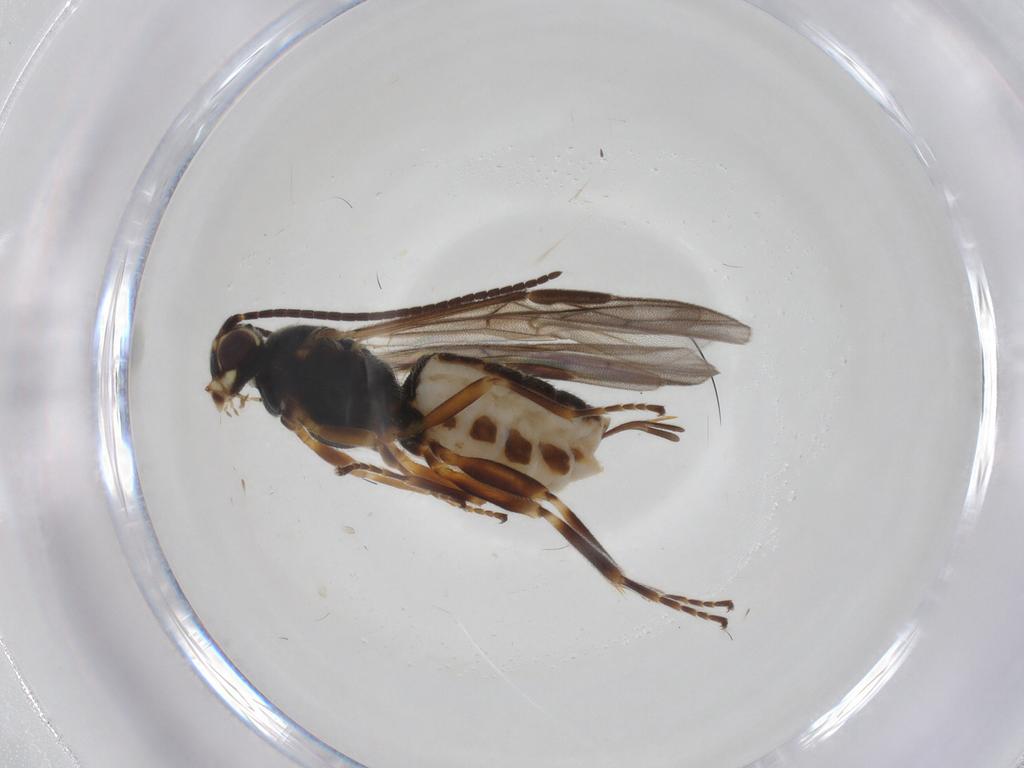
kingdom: Animalia
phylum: Arthropoda
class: Insecta
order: Hymenoptera
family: Braconidae
